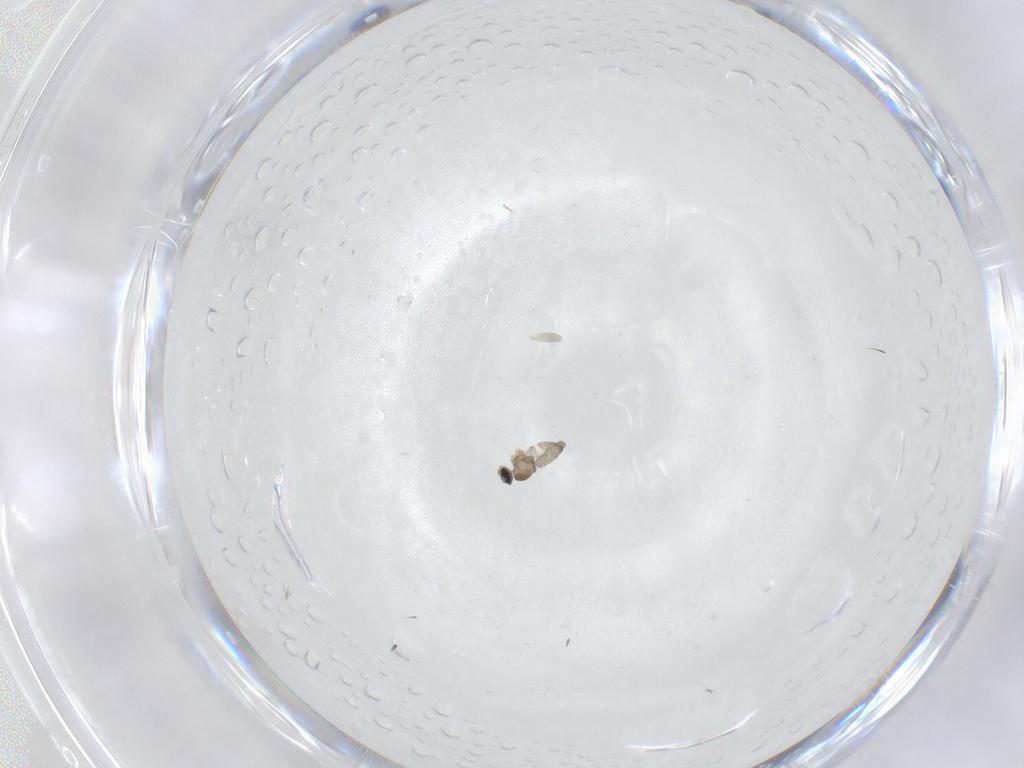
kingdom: Animalia
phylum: Arthropoda
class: Insecta
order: Diptera
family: Cecidomyiidae
